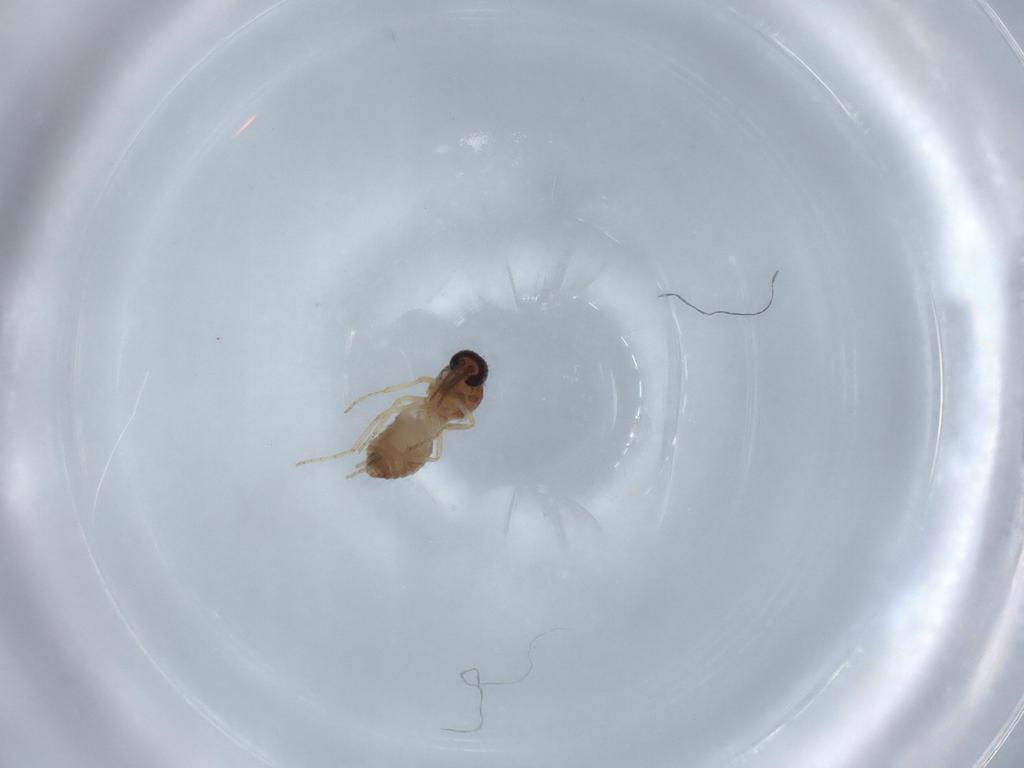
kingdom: Animalia
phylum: Arthropoda
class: Insecta
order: Diptera
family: Ceratopogonidae
